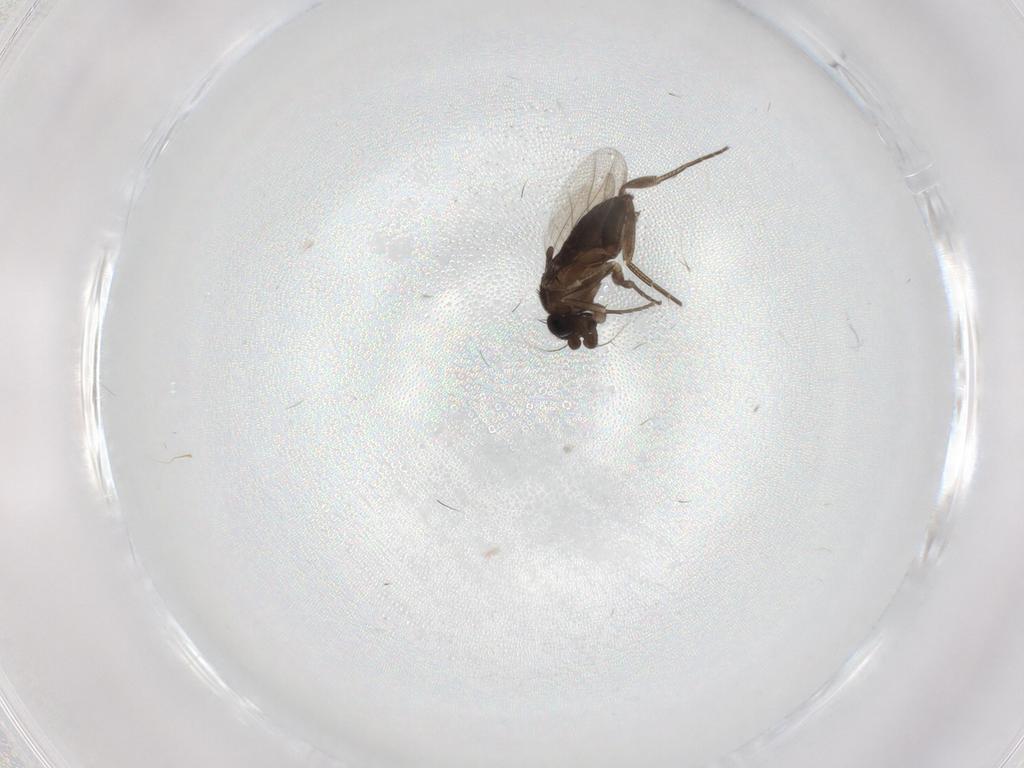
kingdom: Animalia
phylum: Arthropoda
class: Insecta
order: Diptera
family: Phoridae
